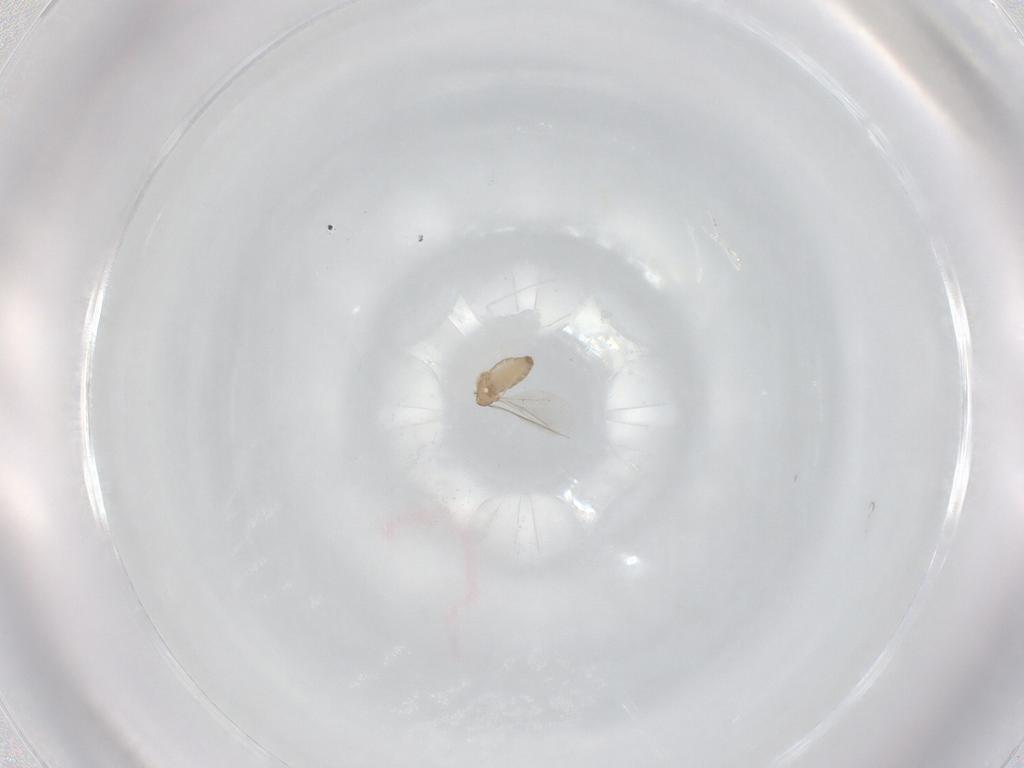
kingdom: Animalia
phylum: Arthropoda
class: Insecta
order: Diptera
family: Cecidomyiidae
